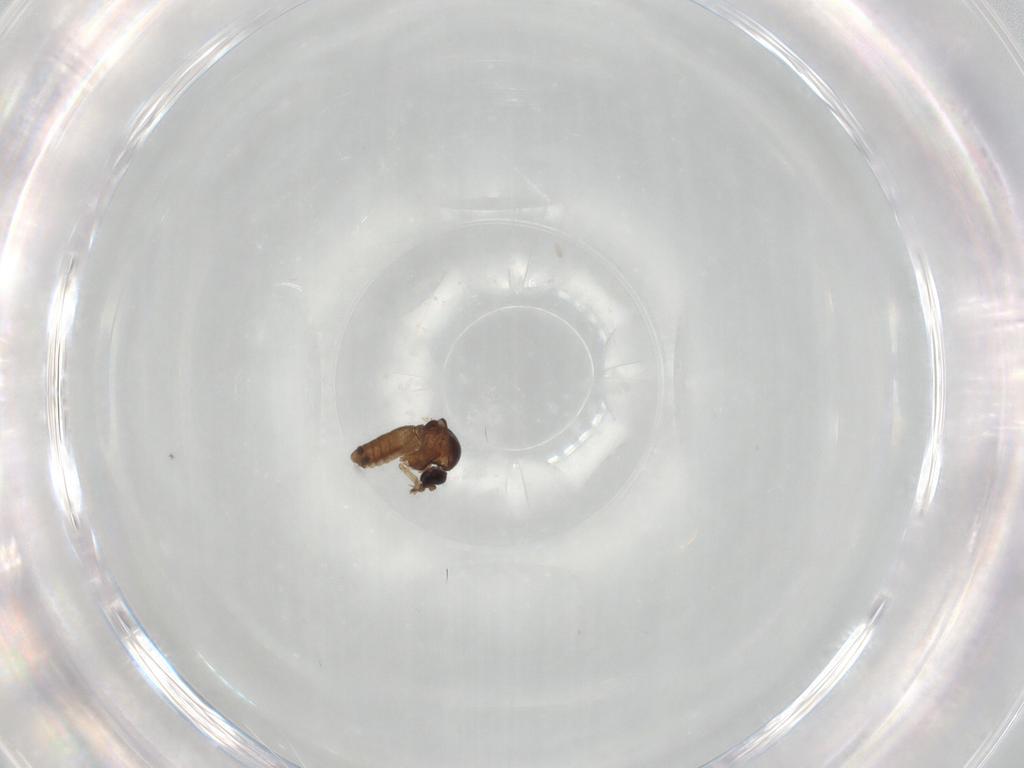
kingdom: Animalia
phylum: Arthropoda
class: Insecta
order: Diptera
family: Ceratopogonidae
